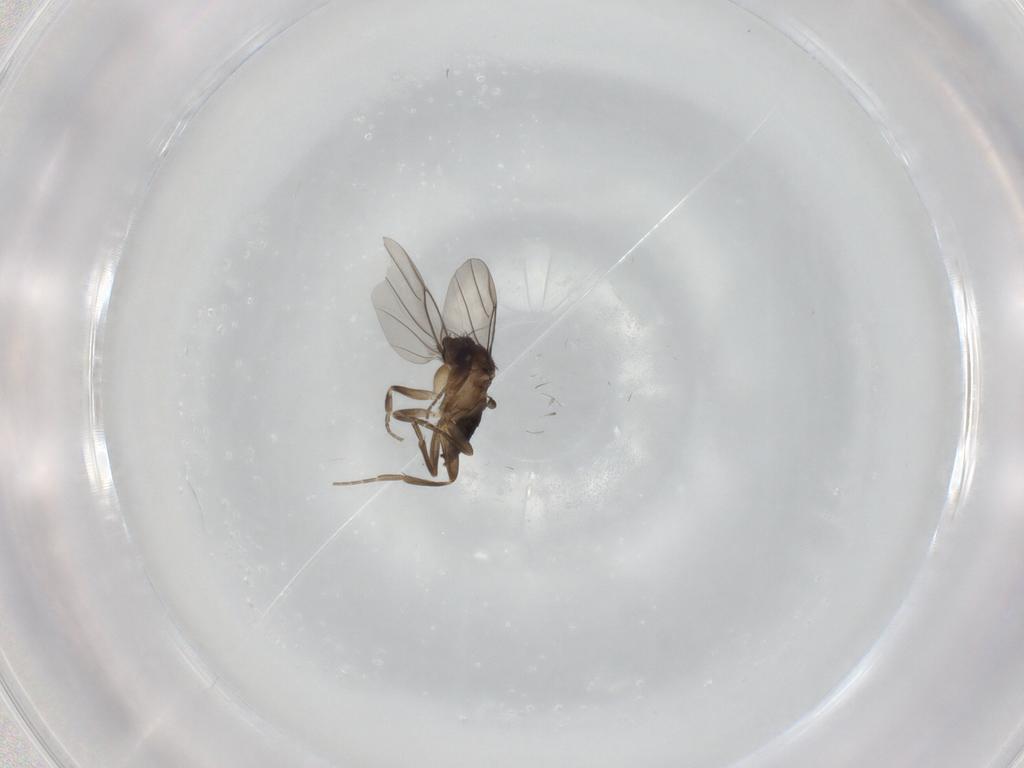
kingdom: Animalia
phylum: Arthropoda
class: Insecta
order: Diptera
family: Phoridae
